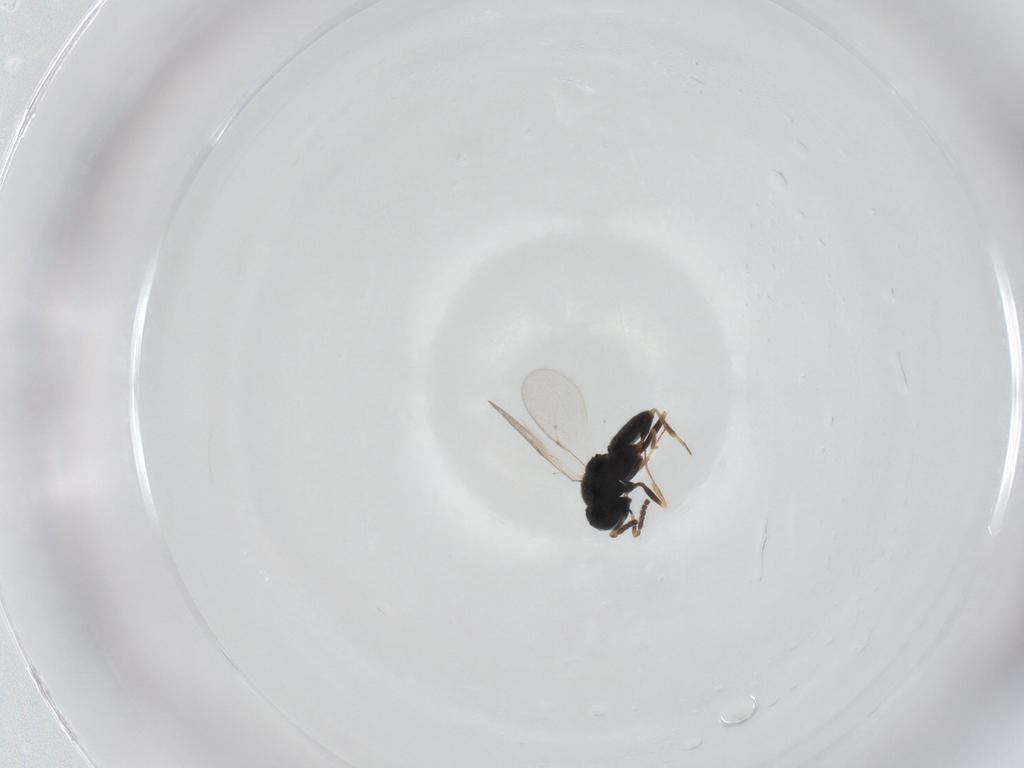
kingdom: Animalia
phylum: Arthropoda
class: Insecta
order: Hymenoptera
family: Scelionidae
